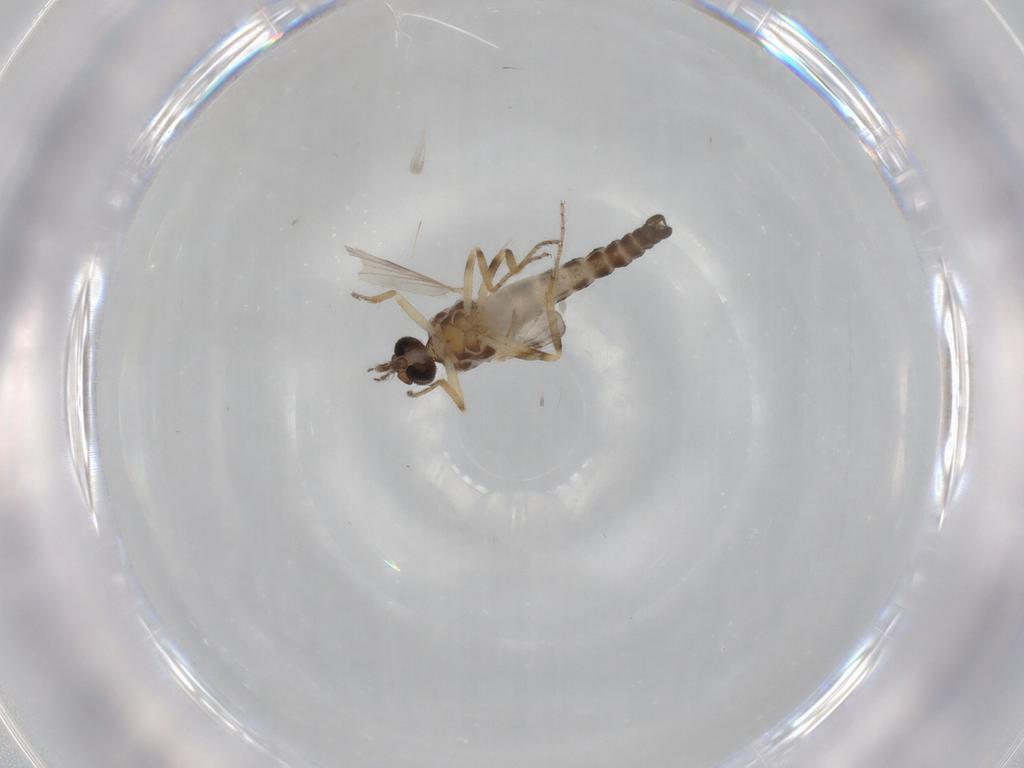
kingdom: Animalia
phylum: Arthropoda
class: Insecta
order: Diptera
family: Ceratopogonidae
